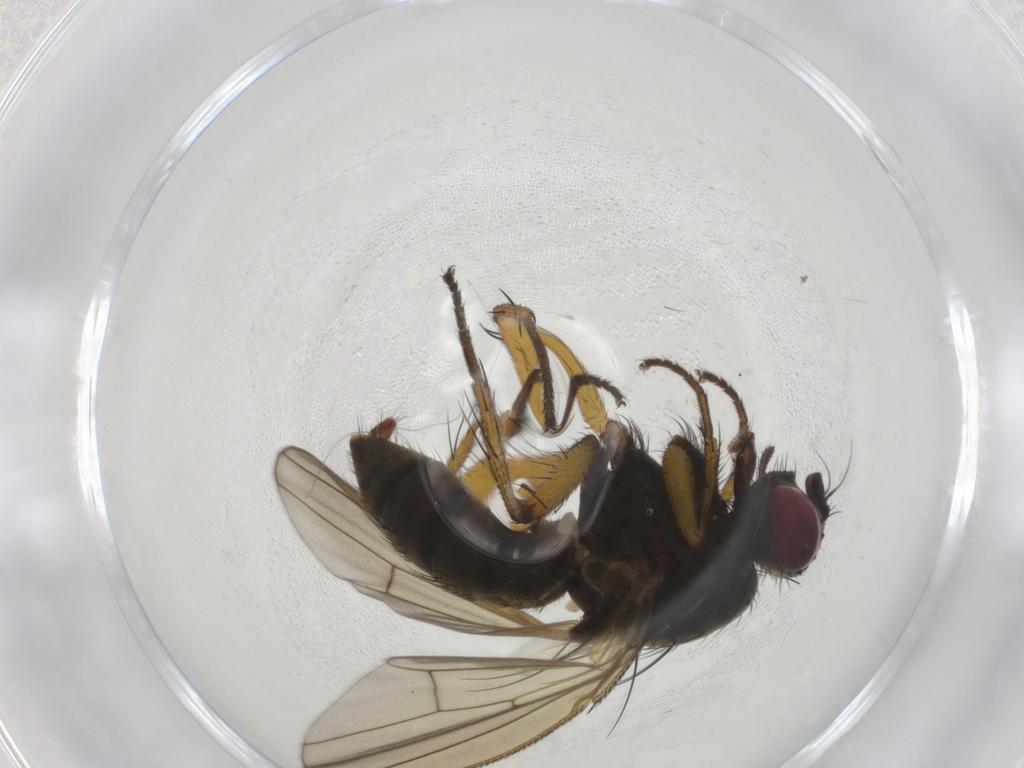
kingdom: Animalia
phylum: Arthropoda
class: Insecta
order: Diptera
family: Muscidae
